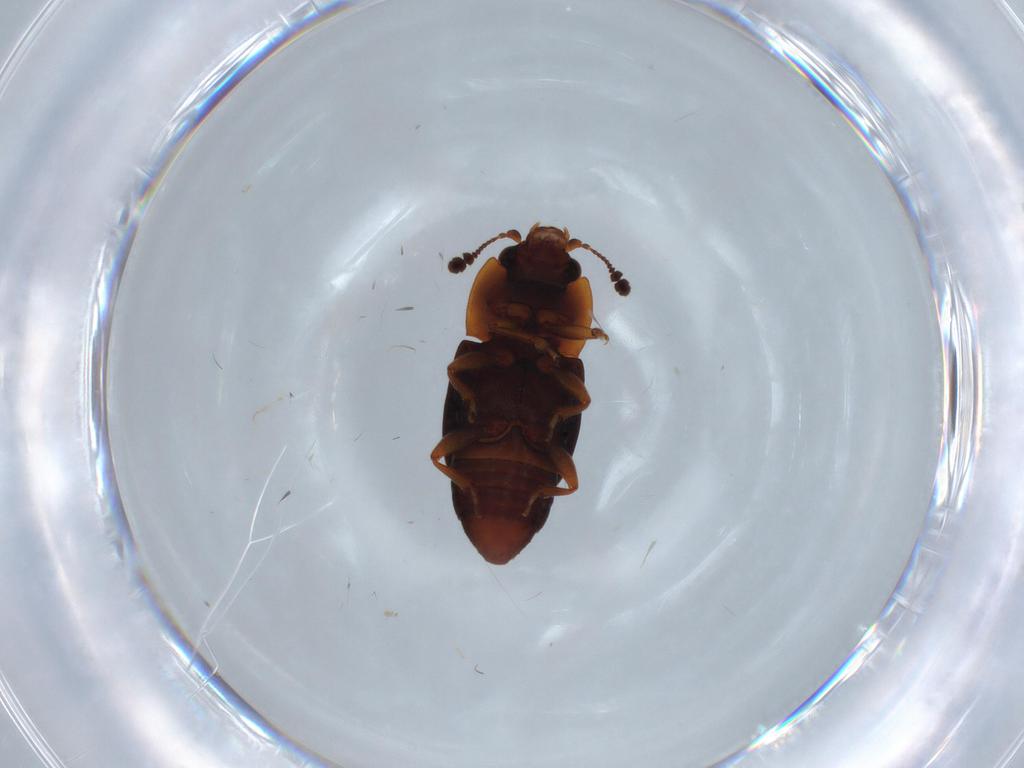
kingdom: Animalia
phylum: Arthropoda
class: Insecta
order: Coleoptera
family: Nitidulidae
